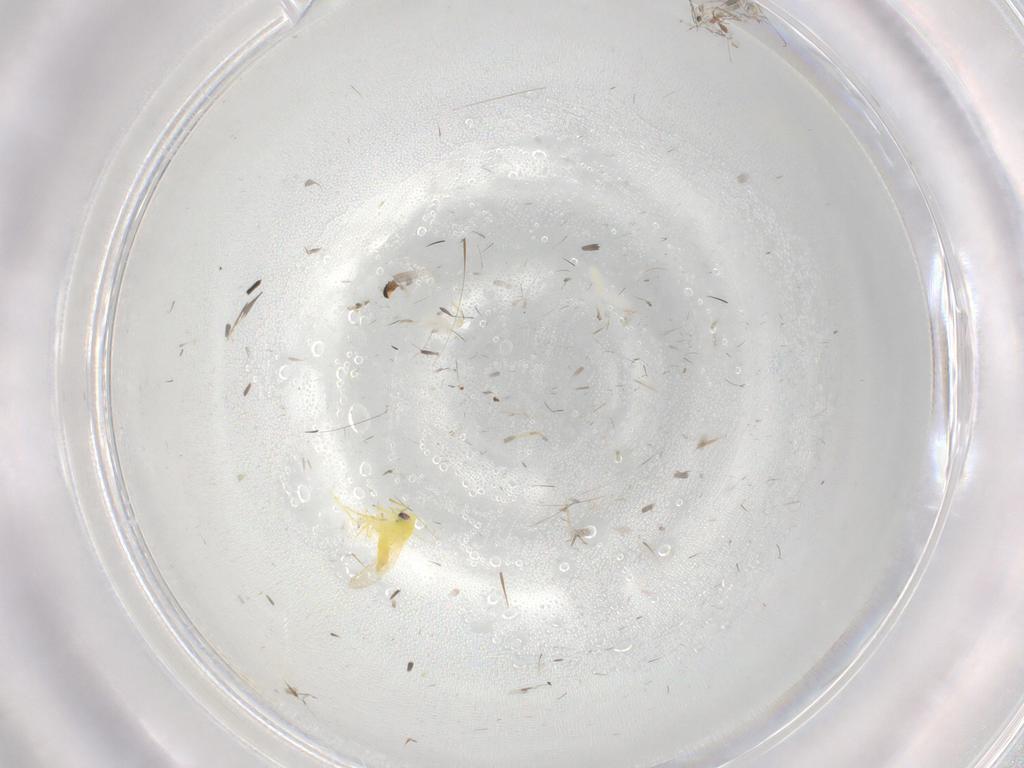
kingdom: Animalia
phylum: Arthropoda
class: Insecta
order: Hemiptera
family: Aleyrodidae
